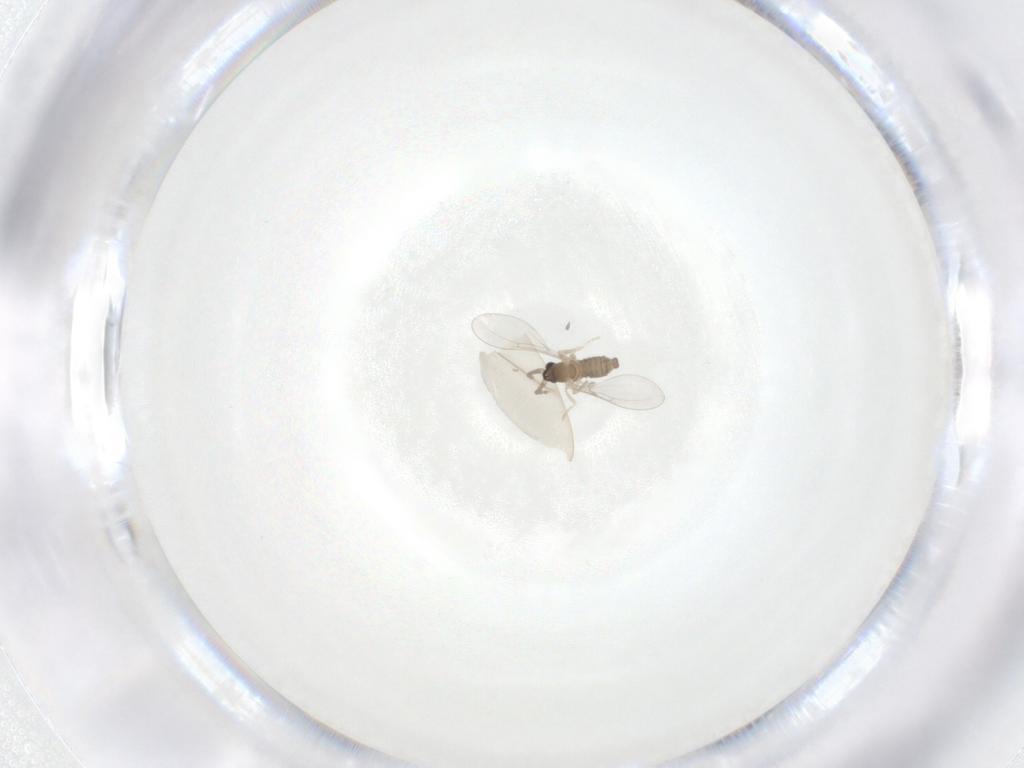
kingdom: Animalia
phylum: Arthropoda
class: Insecta
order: Diptera
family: Cecidomyiidae
